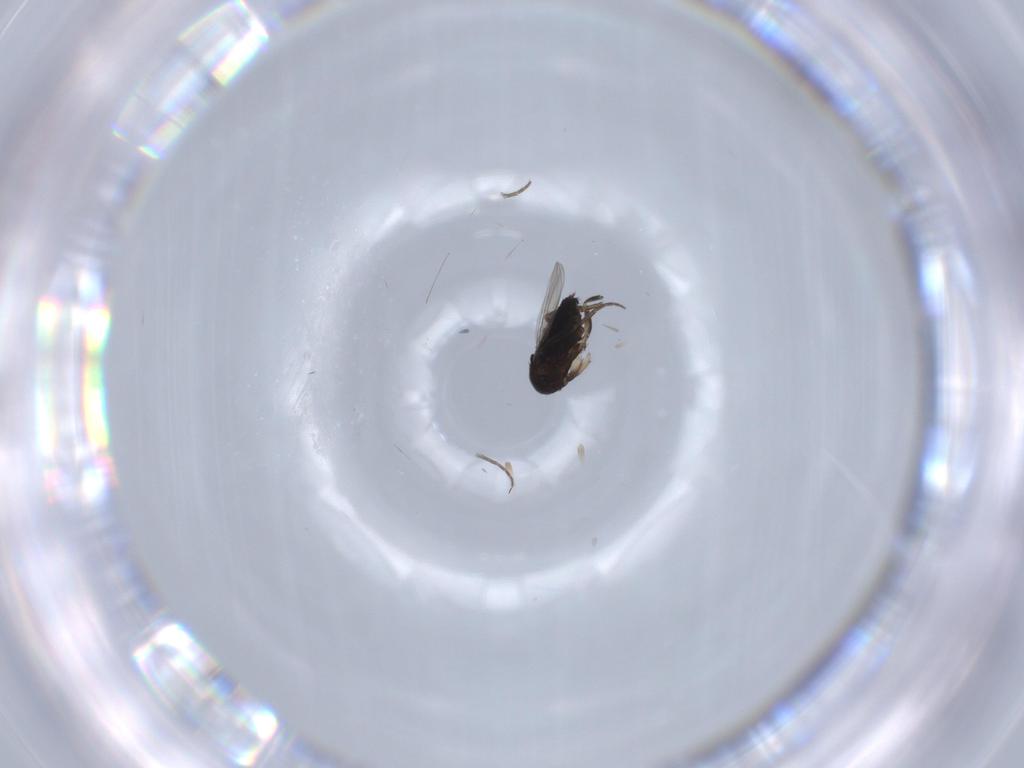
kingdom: Animalia
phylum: Arthropoda
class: Insecta
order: Diptera
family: Phoridae
